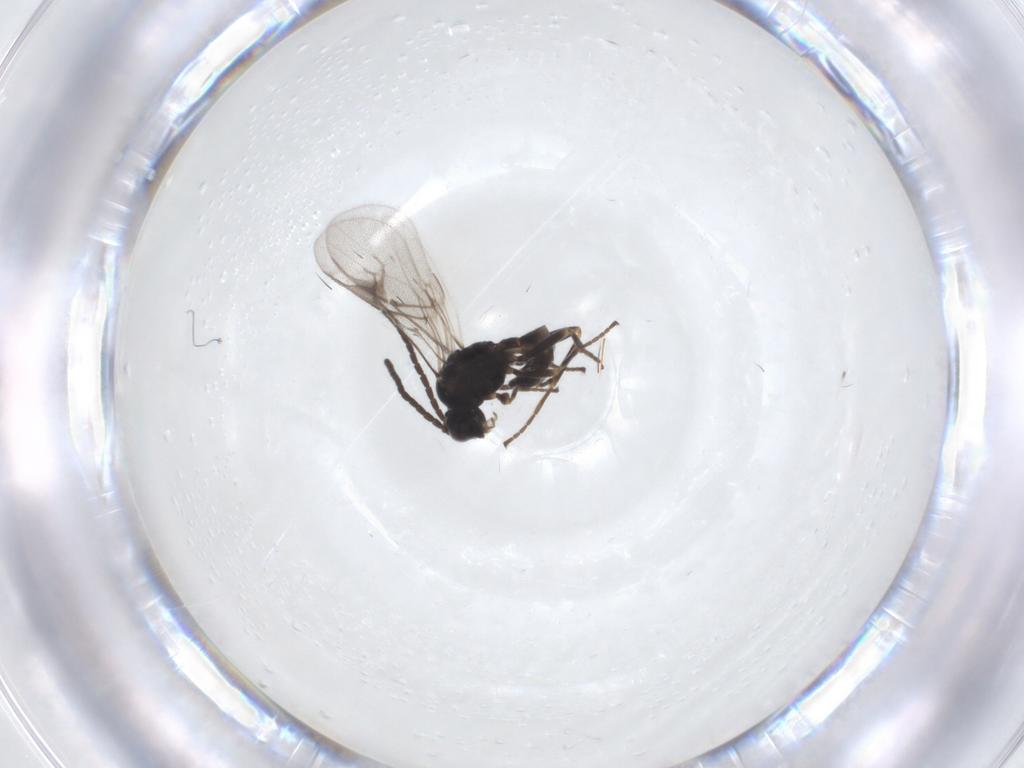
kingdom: Animalia
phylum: Arthropoda
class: Insecta
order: Hymenoptera
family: Braconidae
